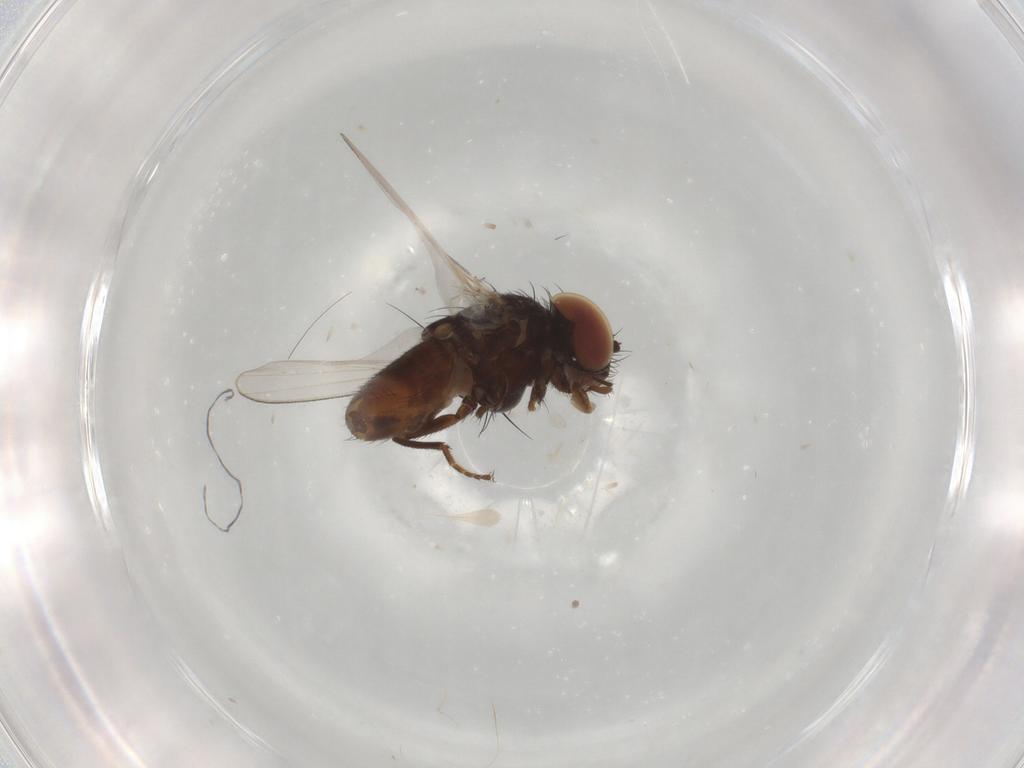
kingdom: Animalia
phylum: Arthropoda
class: Insecta
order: Diptera
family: Milichiidae
